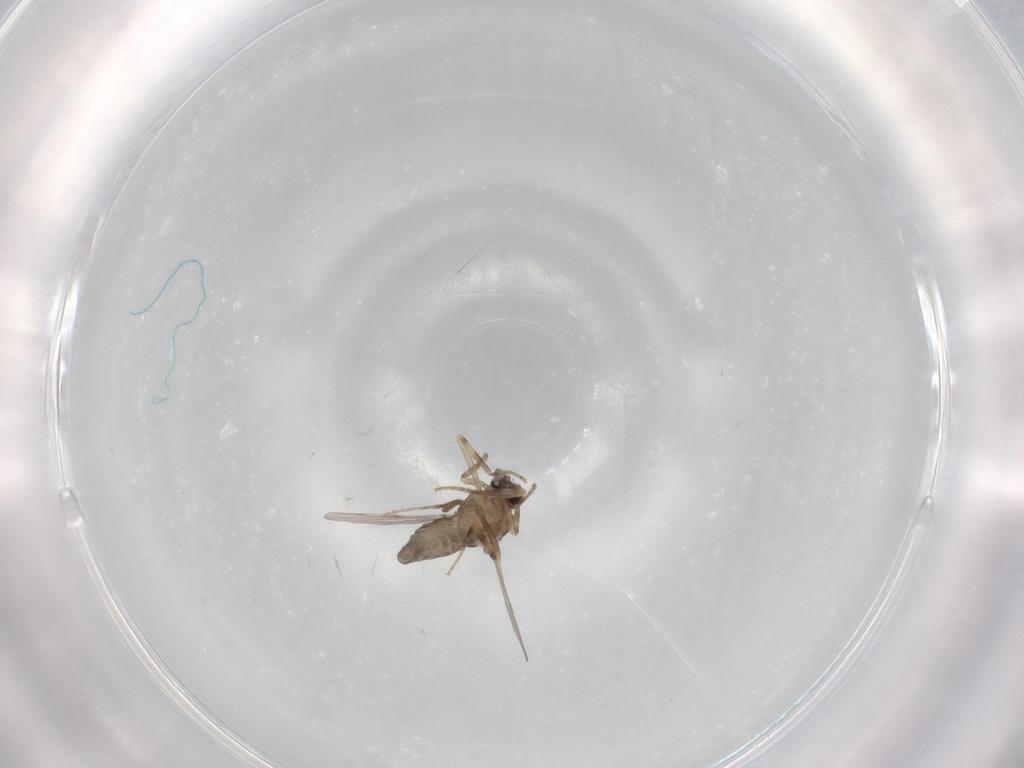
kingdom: Animalia
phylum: Arthropoda
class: Insecta
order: Diptera
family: Ceratopogonidae
